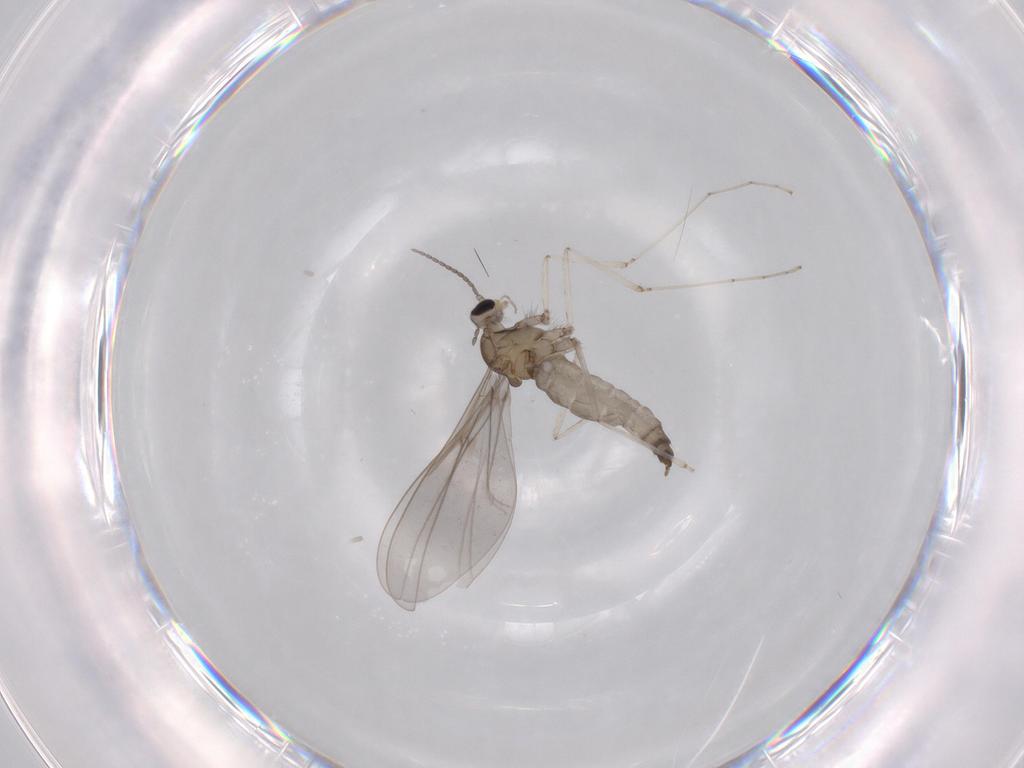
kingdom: Animalia
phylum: Arthropoda
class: Insecta
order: Diptera
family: Cecidomyiidae
